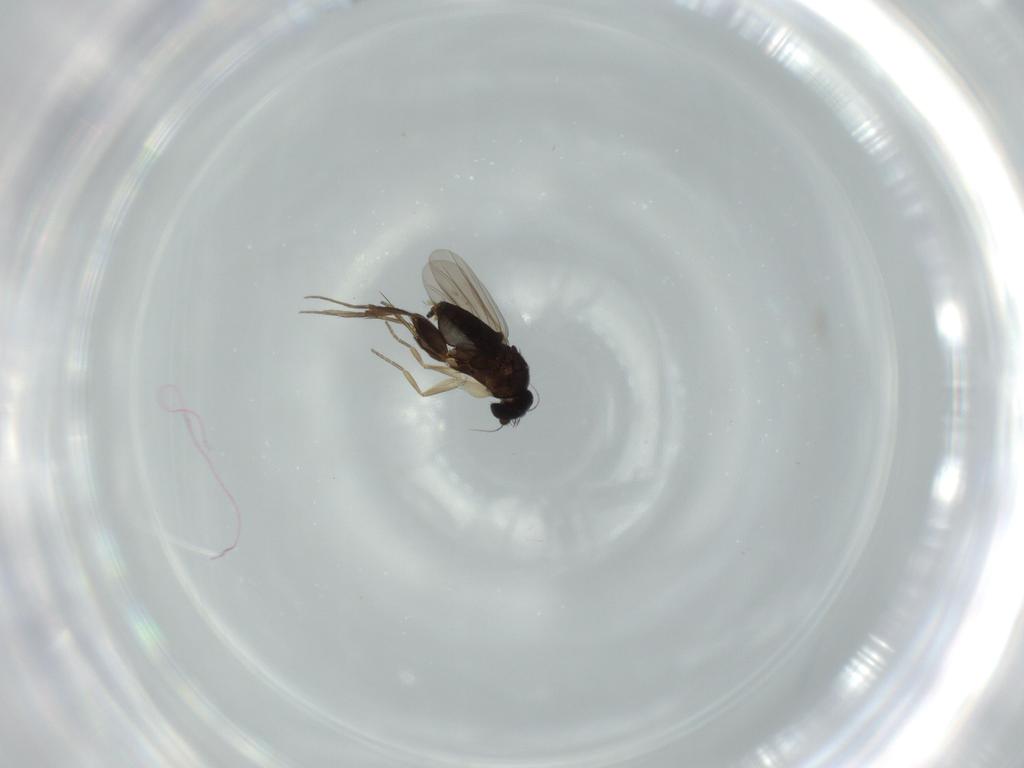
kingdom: Animalia
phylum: Arthropoda
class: Insecta
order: Diptera
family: Phoridae
